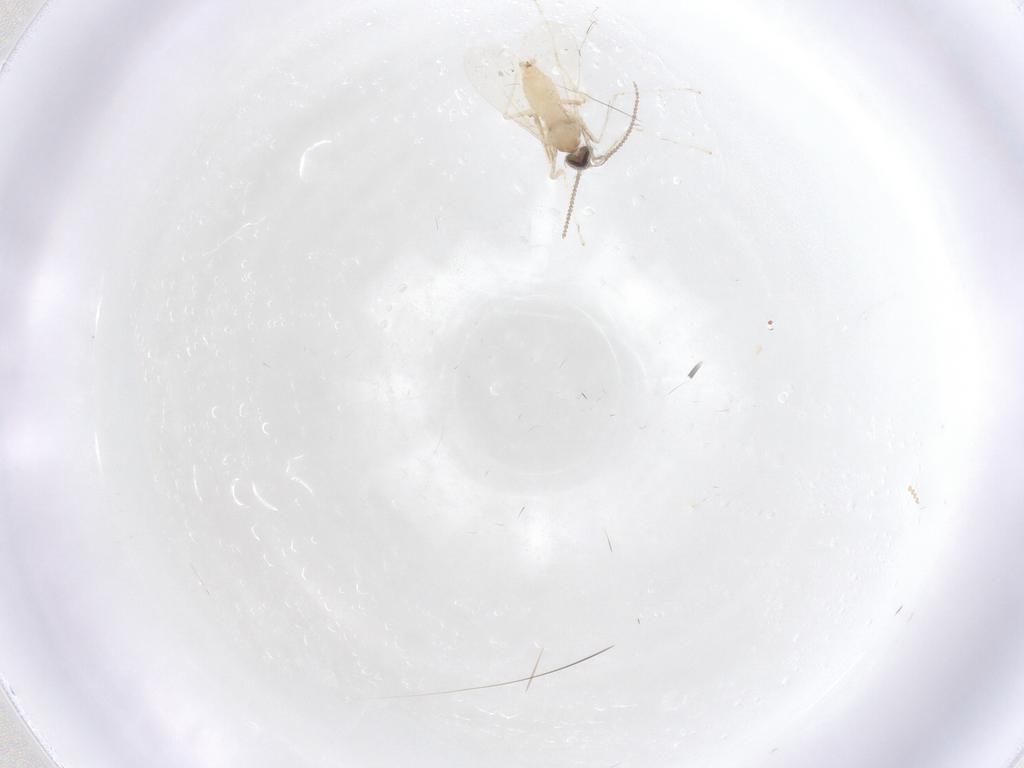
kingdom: Animalia
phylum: Arthropoda
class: Insecta
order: Diptera
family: Cecidomyiidae
